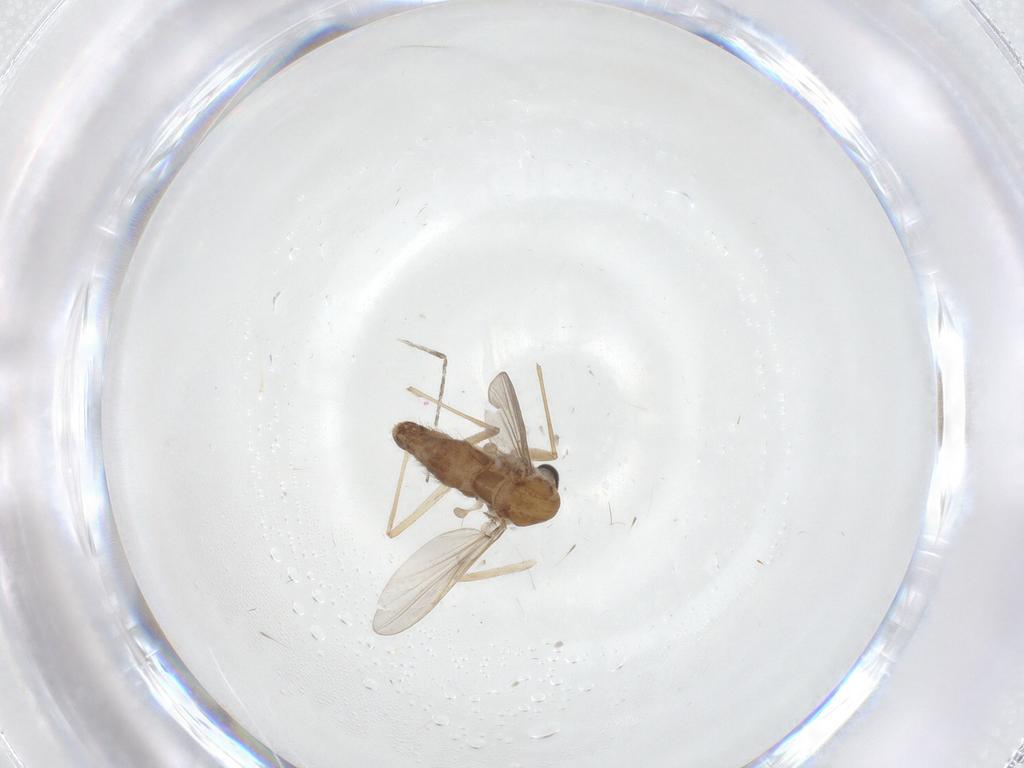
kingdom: Animalia
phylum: Arthropoda
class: Insecta
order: Diptera
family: Chironomidae
